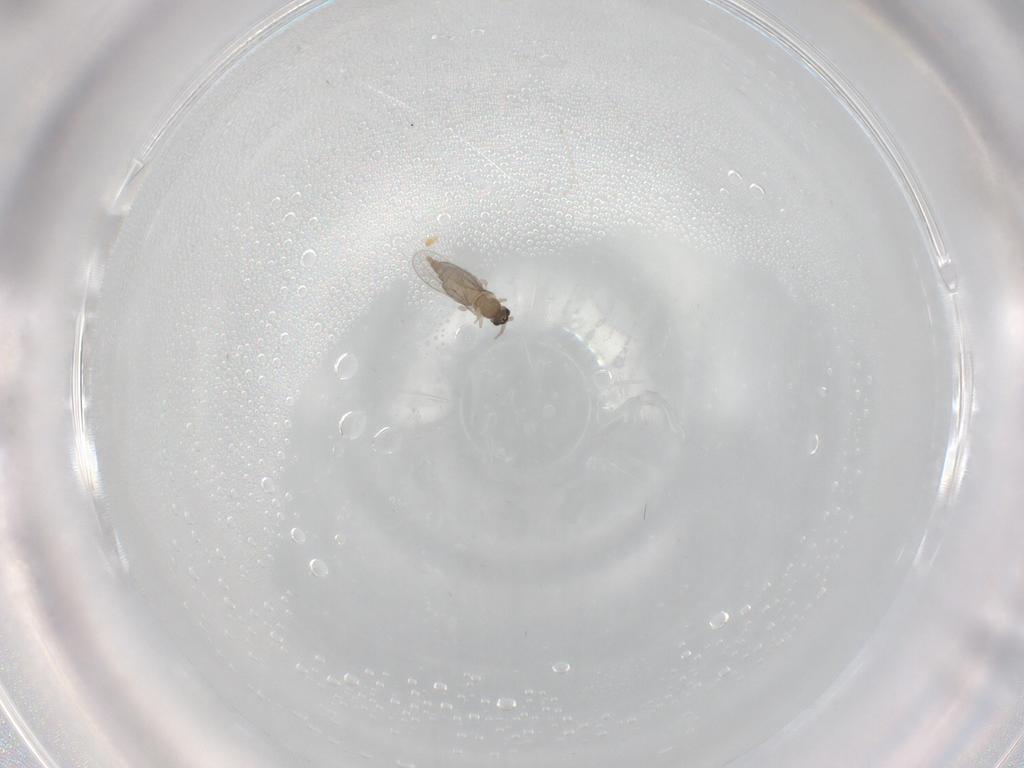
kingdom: Animalia
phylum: Arthropoda
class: Insecta
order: Diptera
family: Cecidomyiidae
